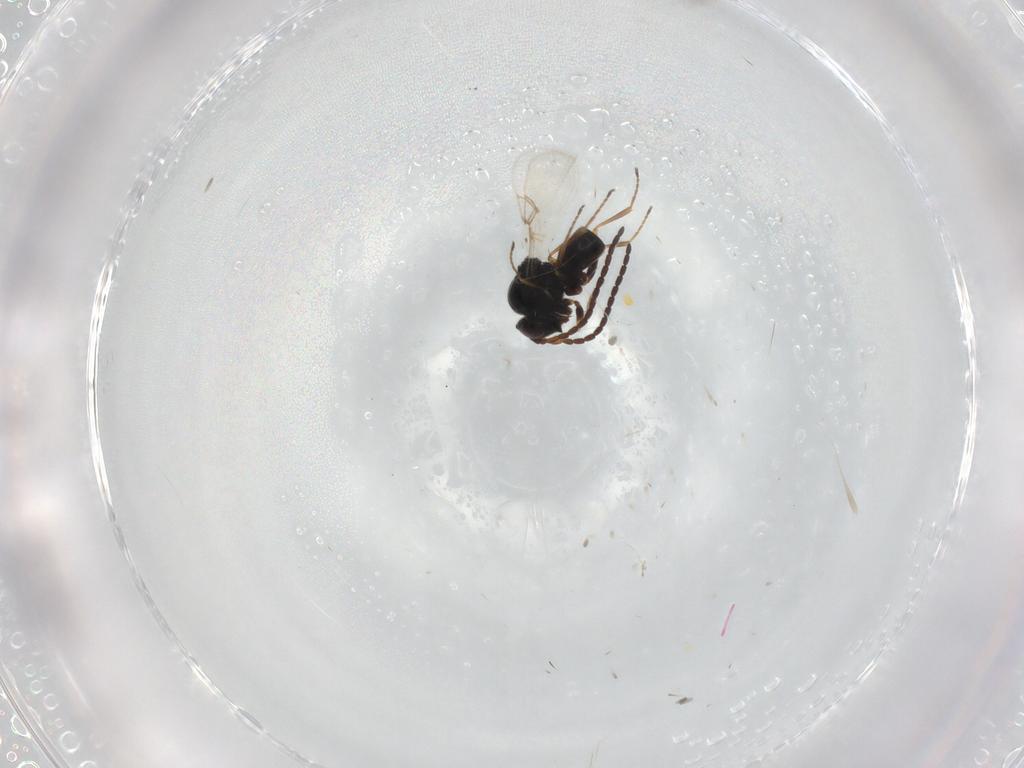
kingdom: Animalia
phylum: Arthropoda
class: Insecta
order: Hymenoptera
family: Figitidae
